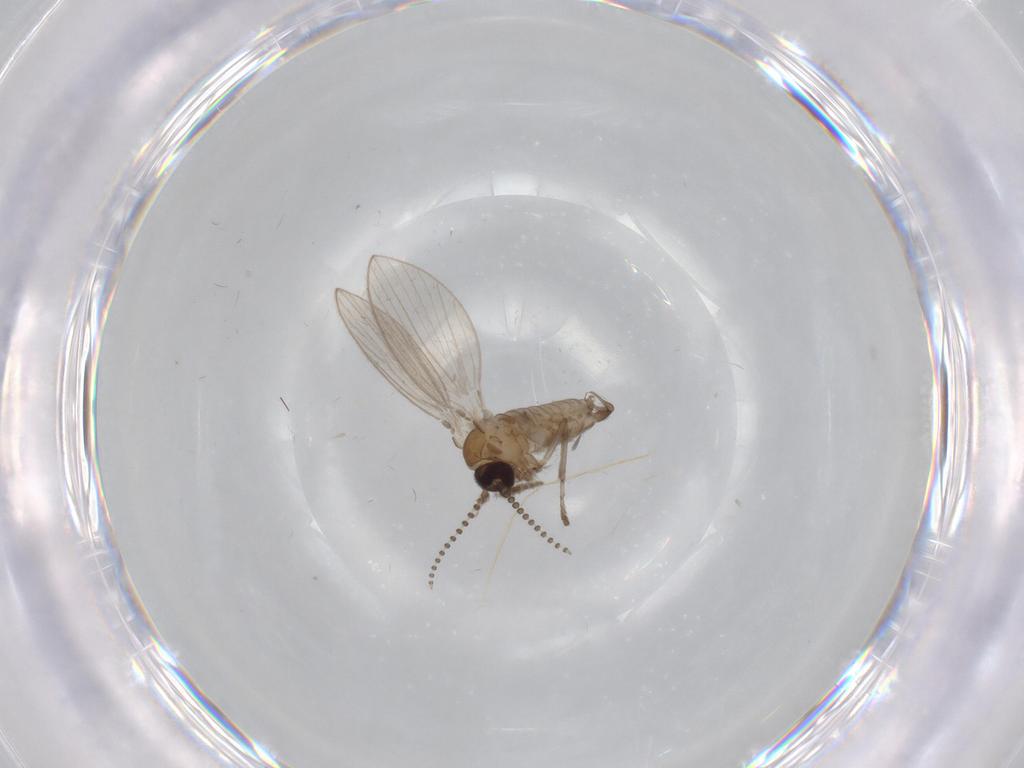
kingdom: Animalia
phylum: Arthropoda
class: Insecta
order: Diptera
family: Psychodidae
